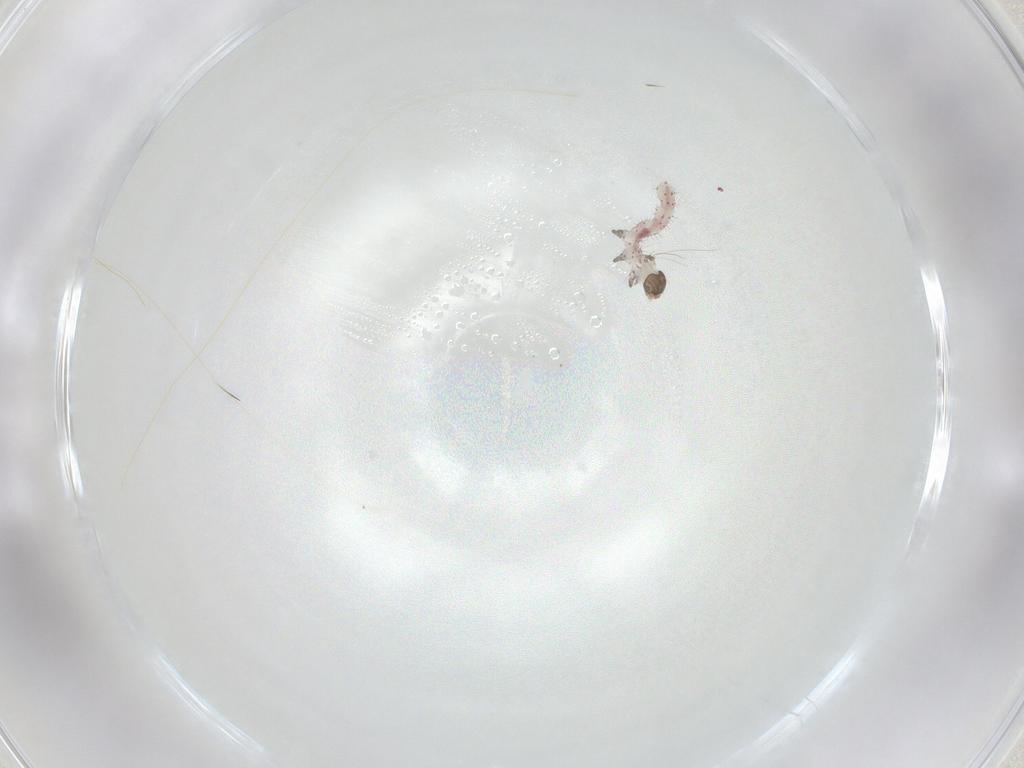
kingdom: Animalia
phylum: Arthropoda
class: Insecta
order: Lepidoptera
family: Erebidae
